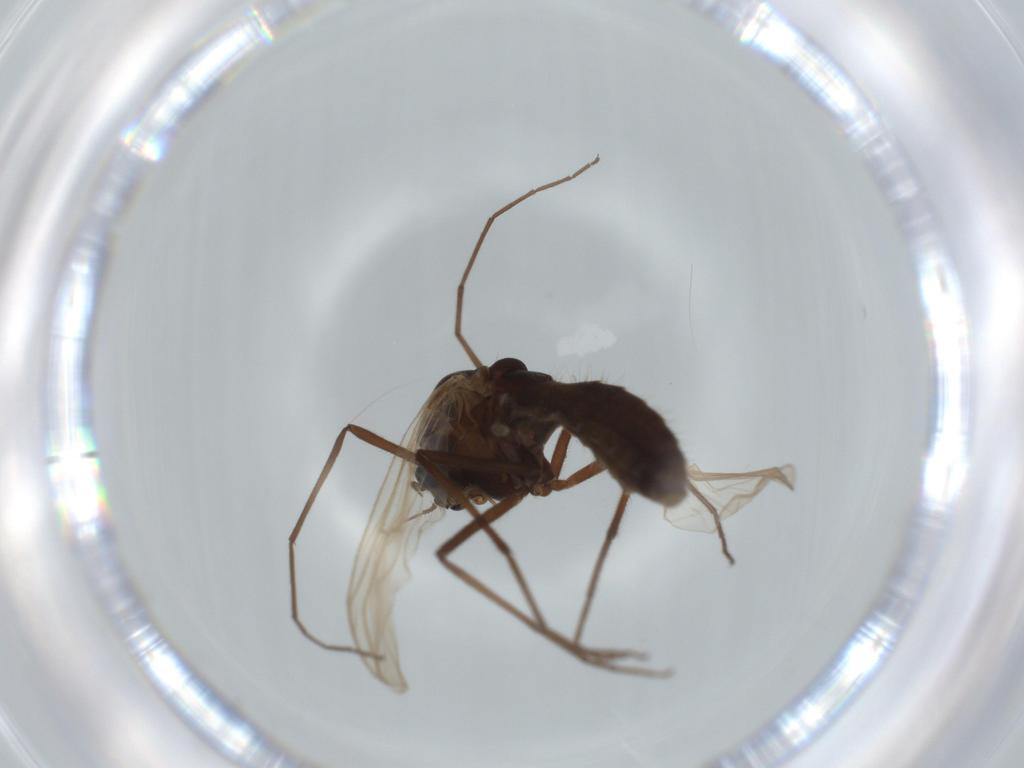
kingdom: Animalia
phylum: Arthropoda
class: Insecta
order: Diptera
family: Chironomidae
